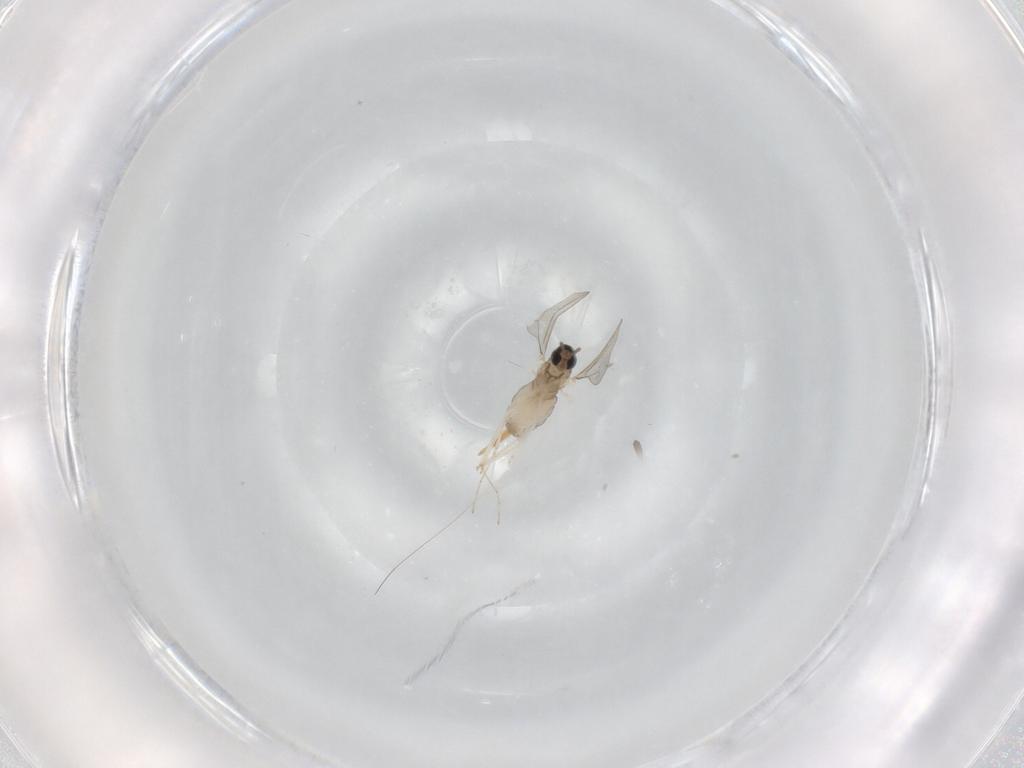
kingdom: Animalia
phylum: Arthropoda
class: Insecta
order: Diptera
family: Cecidomyiidae
